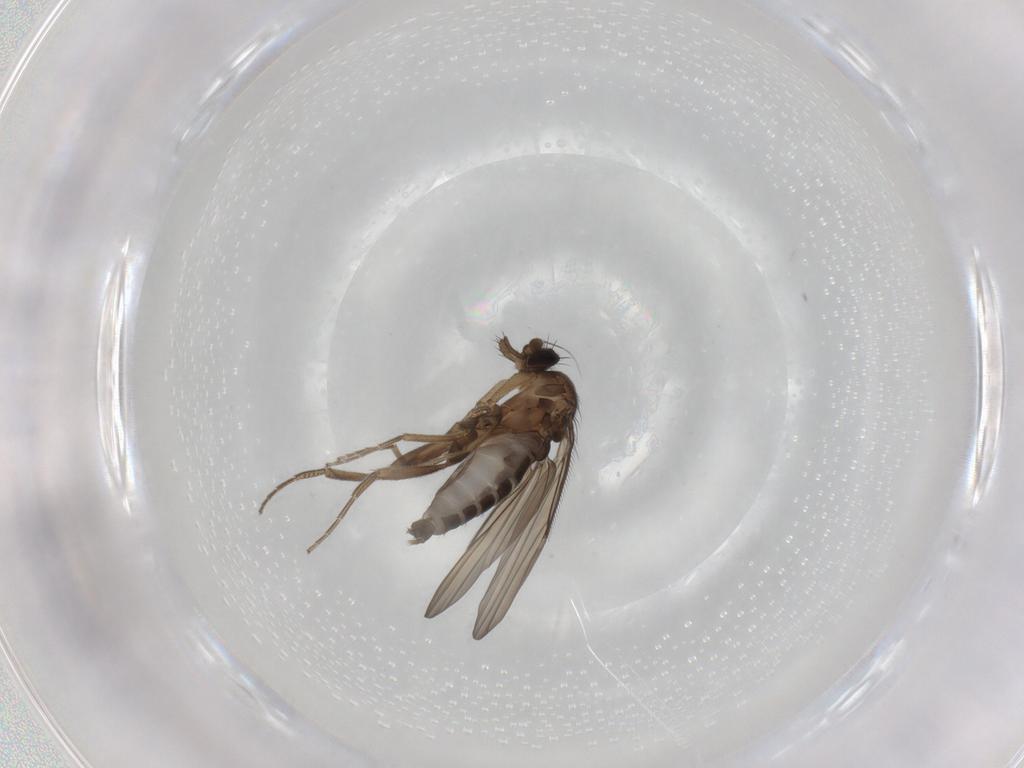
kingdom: Animalia
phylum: Arthropoda
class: Insecta
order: Diptera
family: Phoridae
